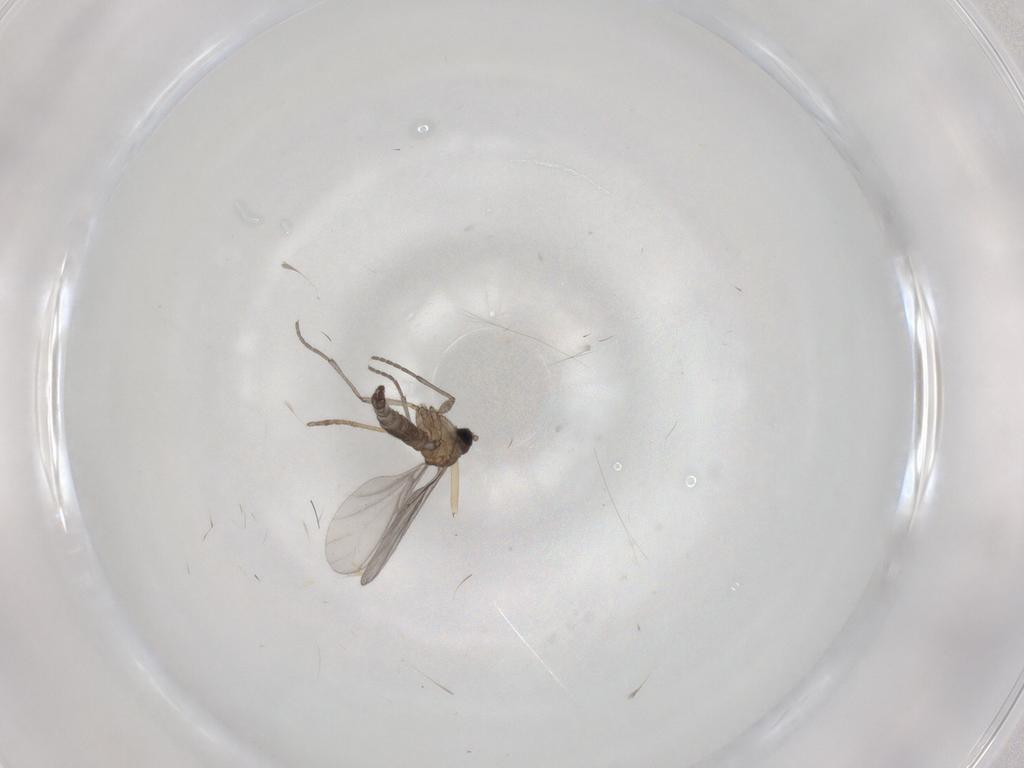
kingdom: Animalia
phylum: Arthropoda
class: Insecta
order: Diptera
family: Sciaridae
